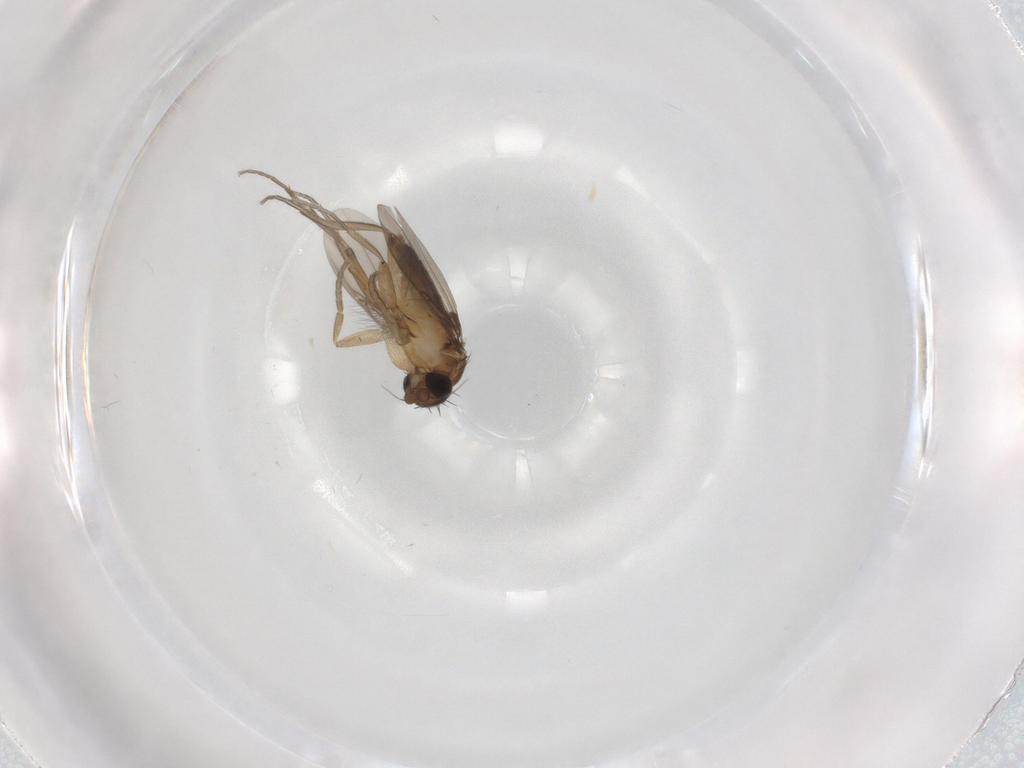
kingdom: Animalia
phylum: Arthropoda
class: Insecta
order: Diptera
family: Phoridae
